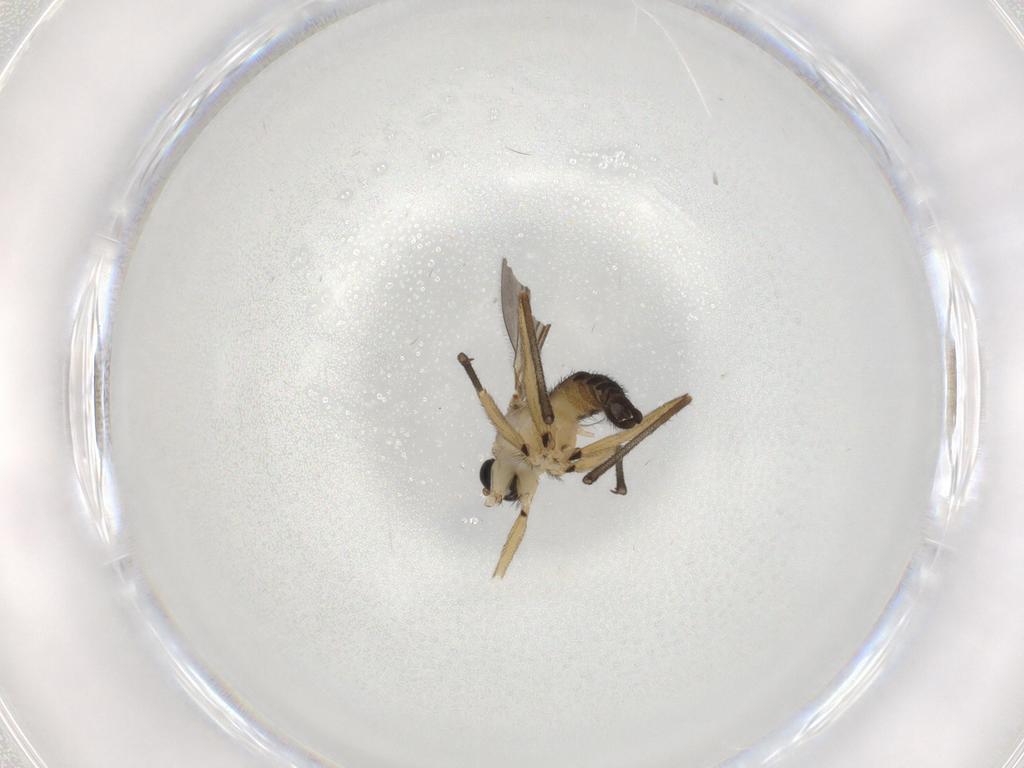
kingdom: Animalia
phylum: Arthropoda
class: Insecta
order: Diptera
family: Sciaridae
